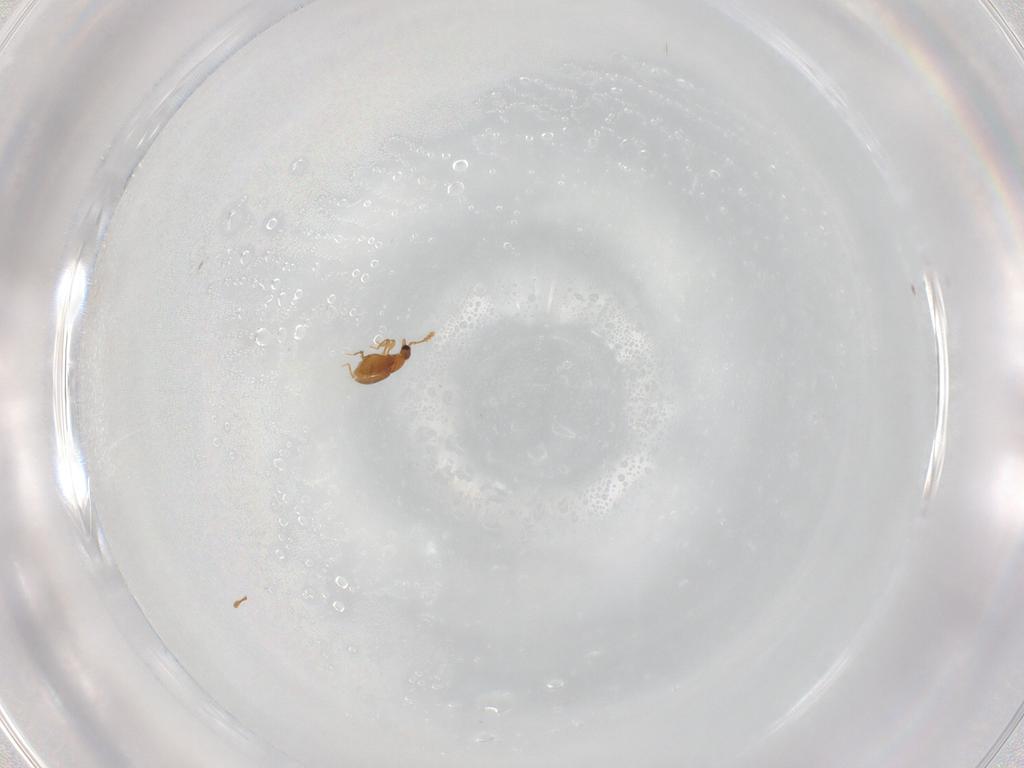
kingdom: Animalia
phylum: Arthropoda
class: Insecta
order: Coleoptera
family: Staphylinidae
